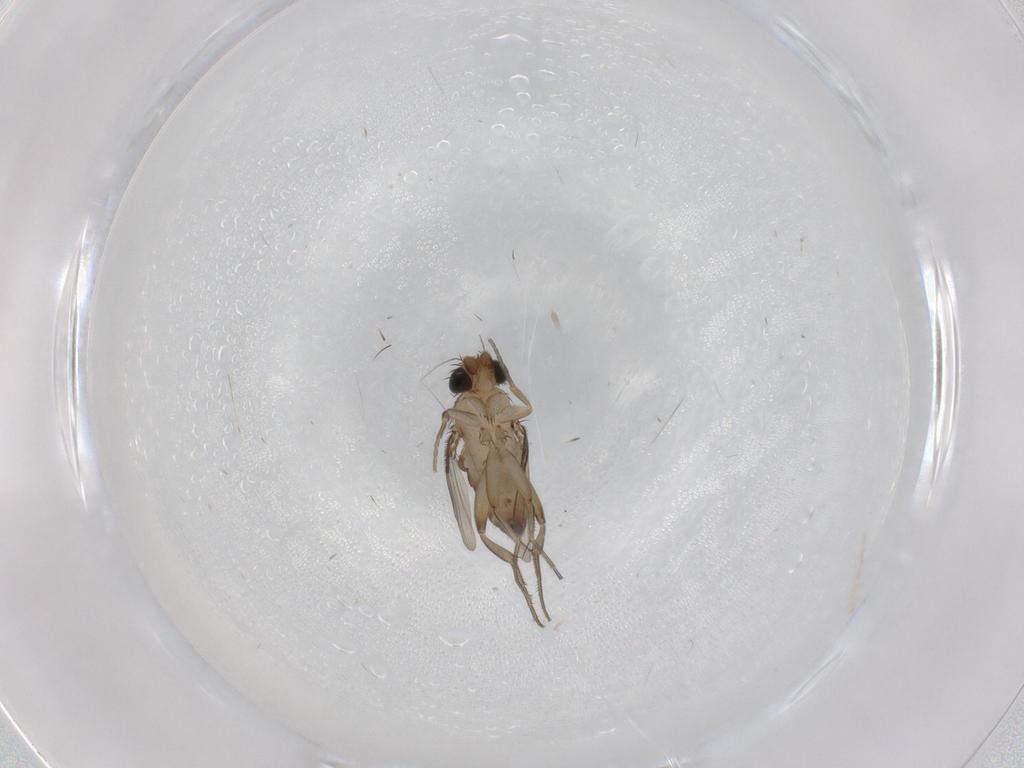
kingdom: Animalia
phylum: Arthropoda
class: Insecta
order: Diptera
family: Phoridae
